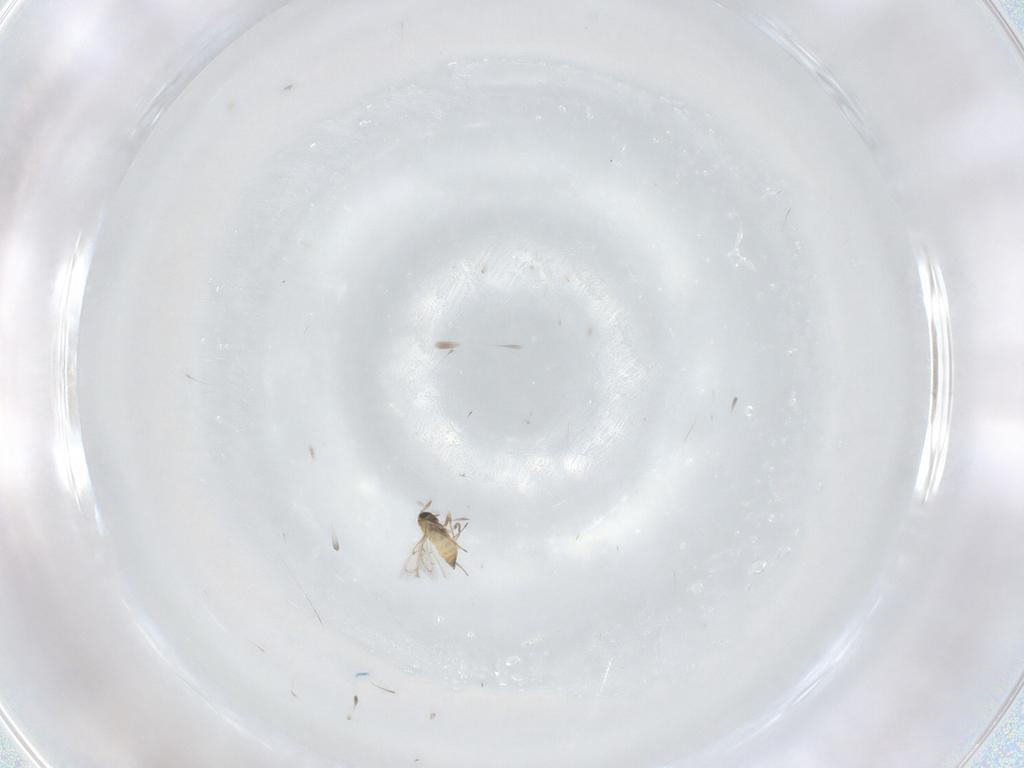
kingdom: Animalia
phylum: Arthropoda
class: Insecta
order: Hymenoptera
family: Trichogrammatidae
